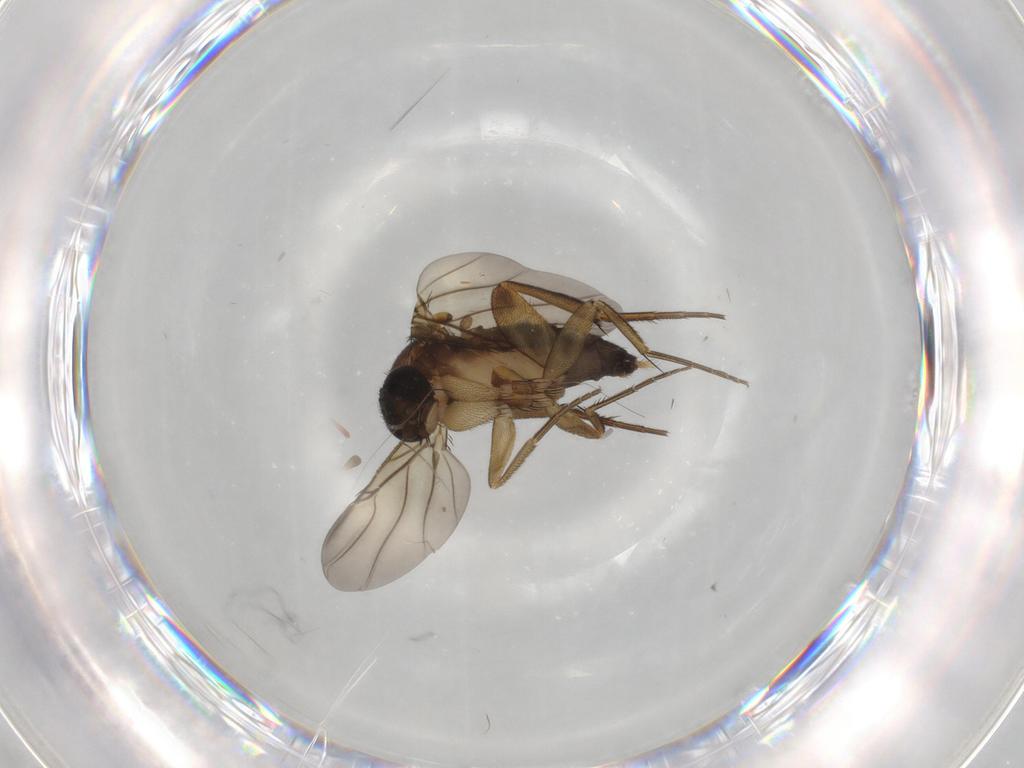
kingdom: Animalia
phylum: Arthropoda
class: Insecta
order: Diptera
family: Phoridae
